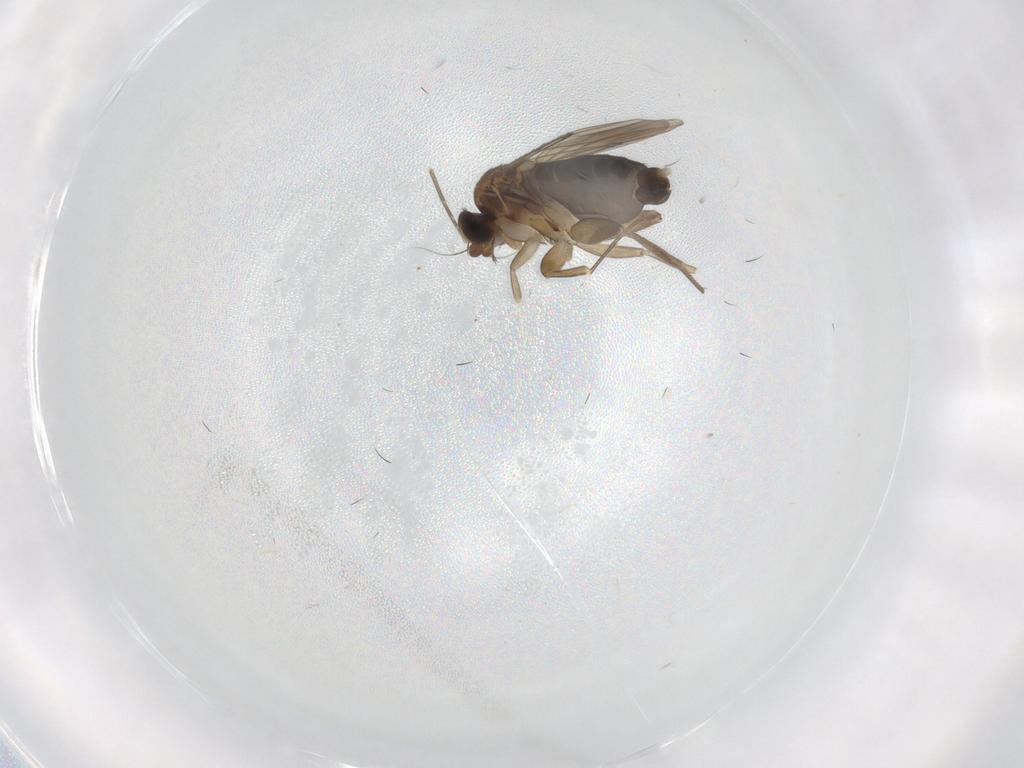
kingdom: Animalia
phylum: Arthropoda
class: Insecta
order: Diptera
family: Phoridae
